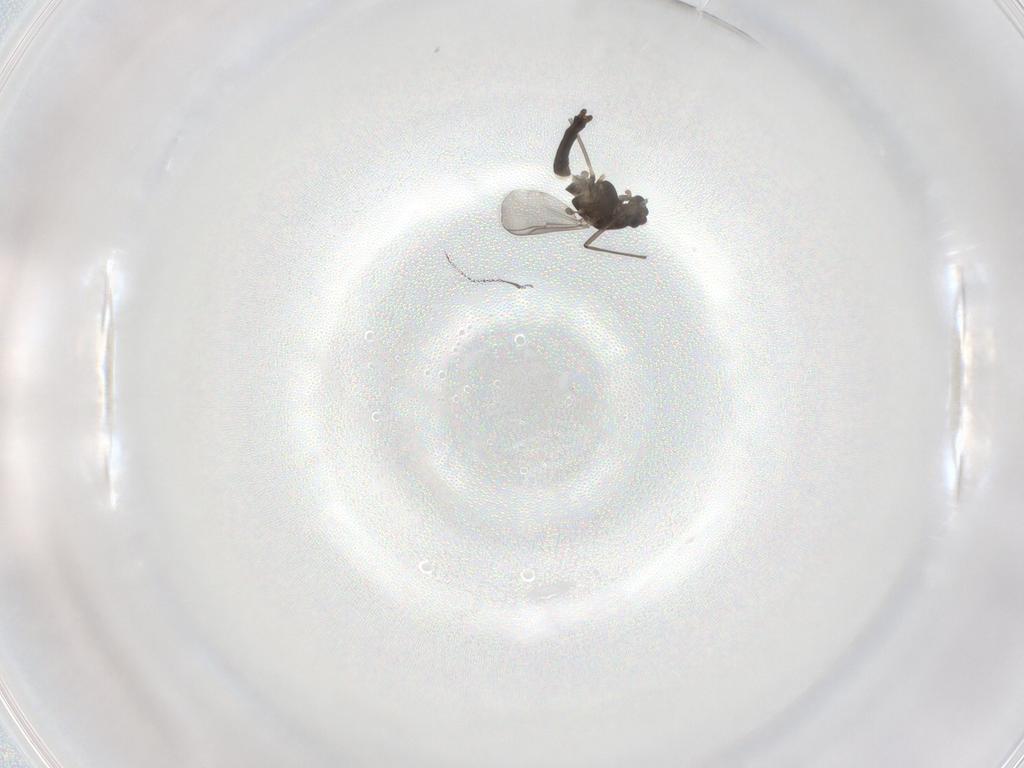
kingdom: Animalia
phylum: Arthropoda
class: Insecta
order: Diptera
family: Chironomidae
